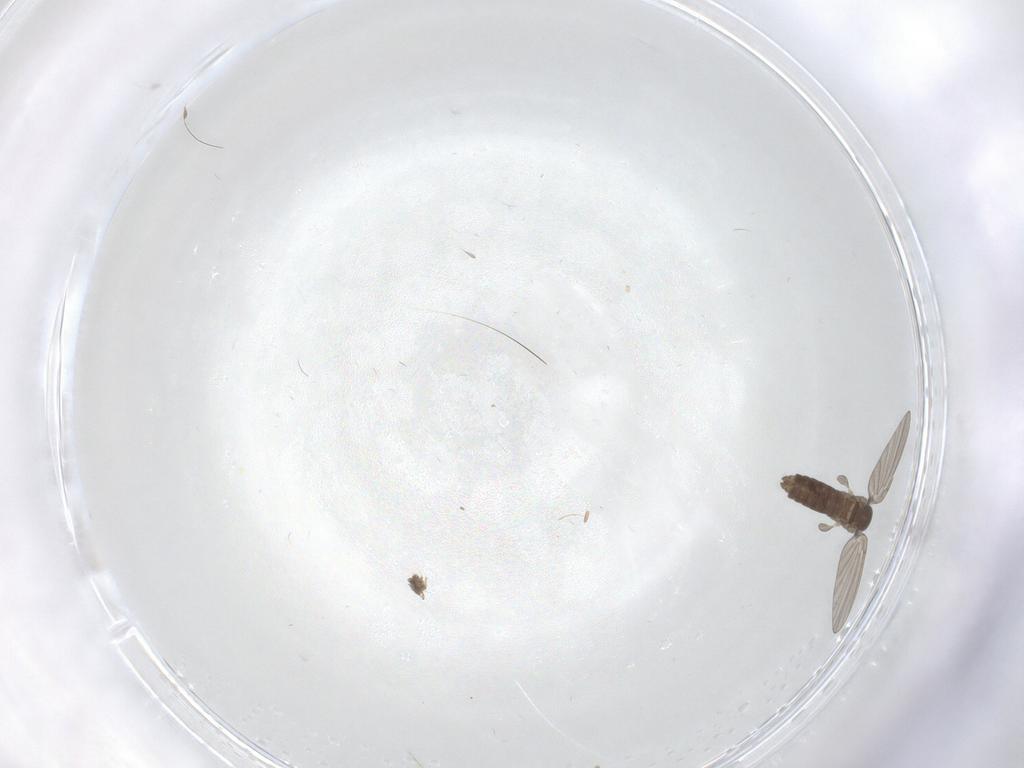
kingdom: Animalia
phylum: Arthropoda
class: Insecta
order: Diptera
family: Psychodidae
